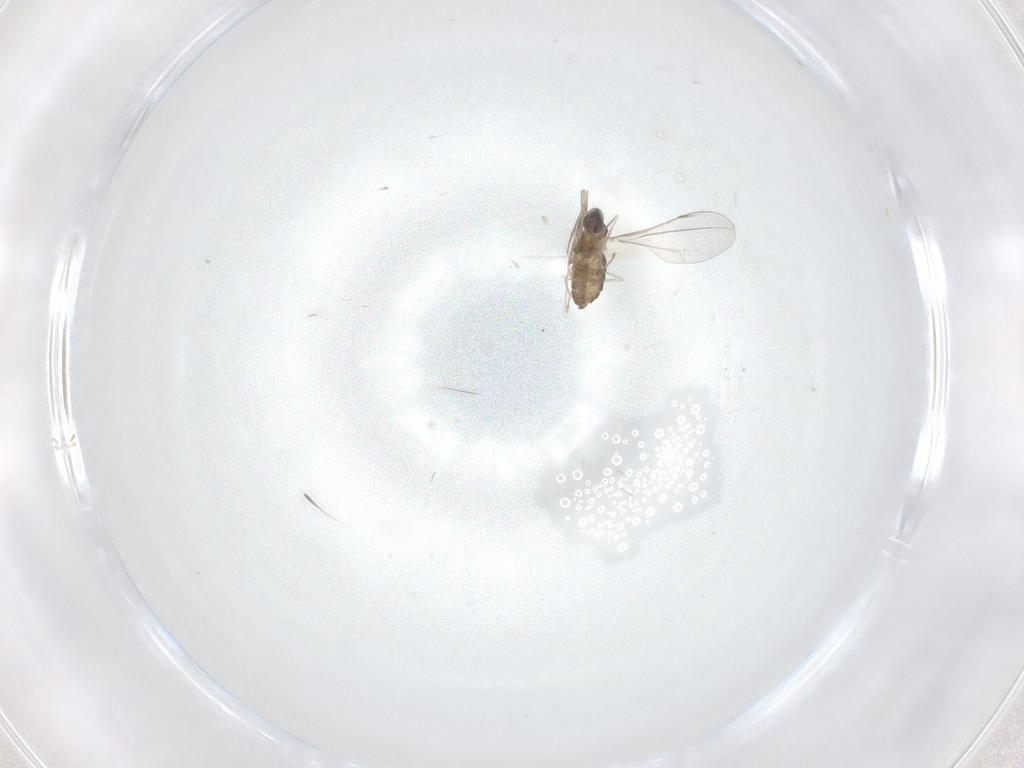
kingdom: Animalia
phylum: Arthropoda
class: Insecta
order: Diptera
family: Cecidomyiidae
